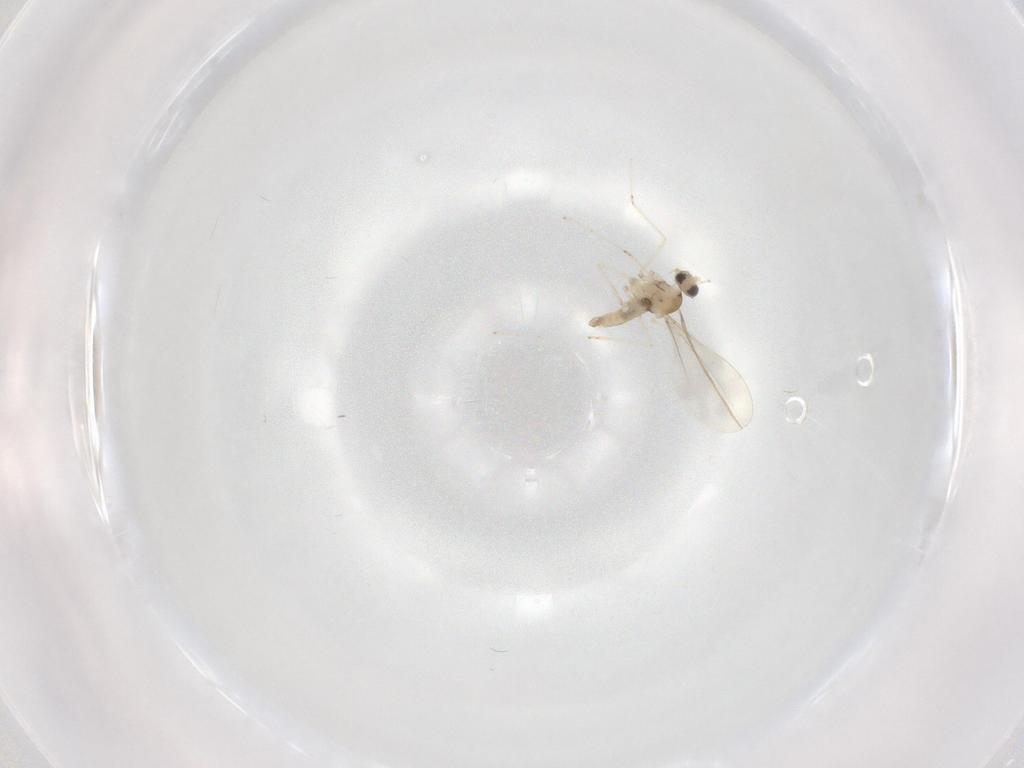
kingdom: Animalia
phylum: Arthropoda
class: Insecta
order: Diptera
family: Cecidomyiidae
